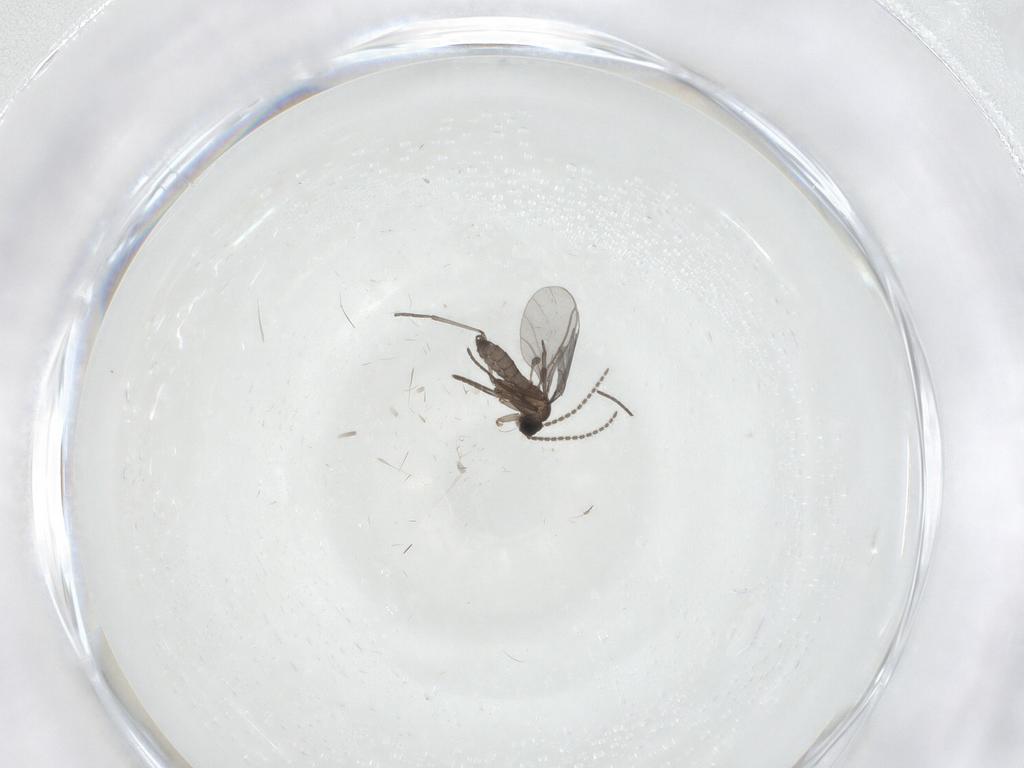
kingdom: Animalia
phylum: Arthropoda
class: Insecta
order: Diptera
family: Sciaridae
